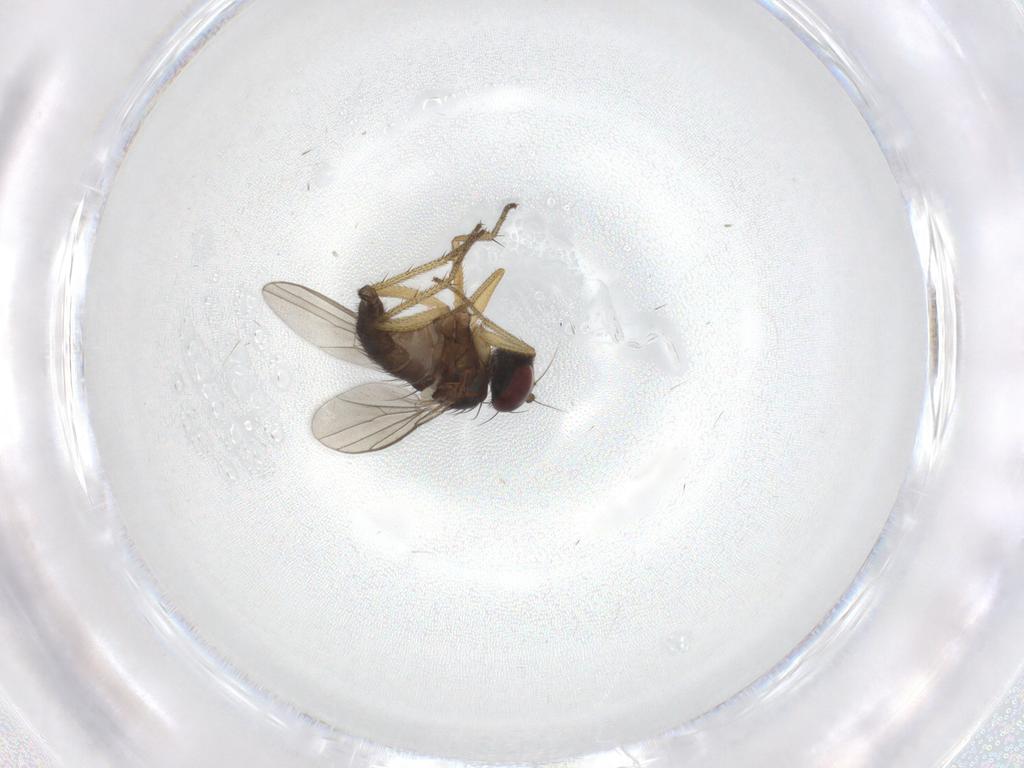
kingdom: Animalia
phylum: Arthropoda
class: Insecta
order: Diptera
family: Dolichopodidae
